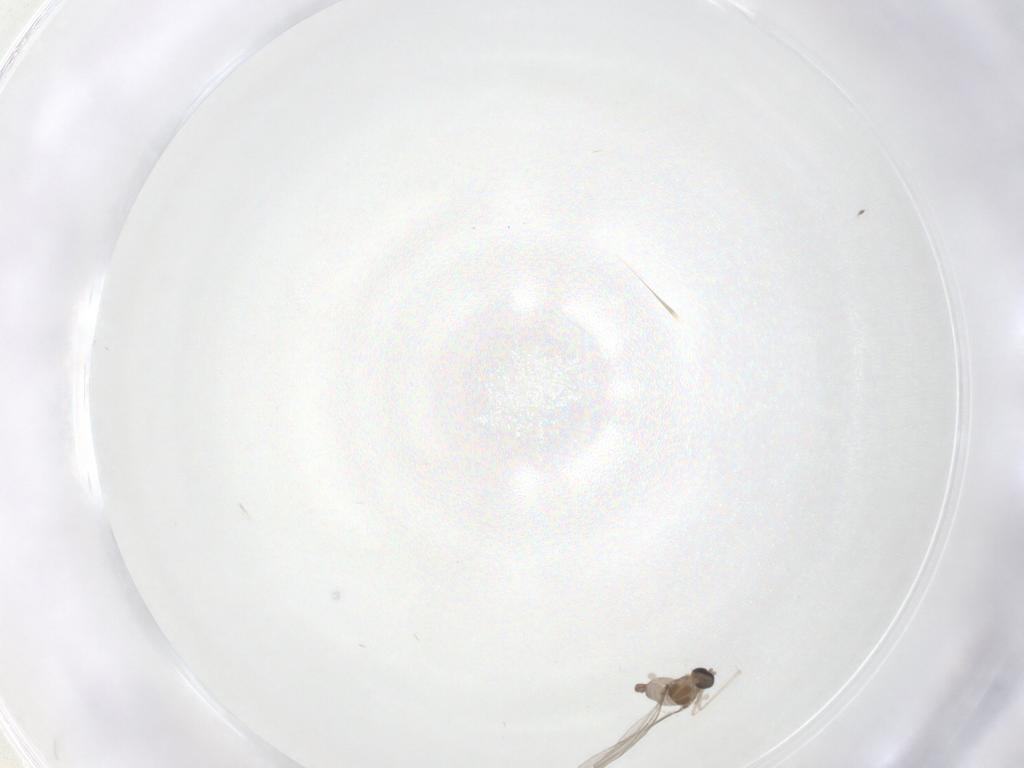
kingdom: Animalia
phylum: Arthropoda
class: Insecta
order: Diptera
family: Limoniidae
